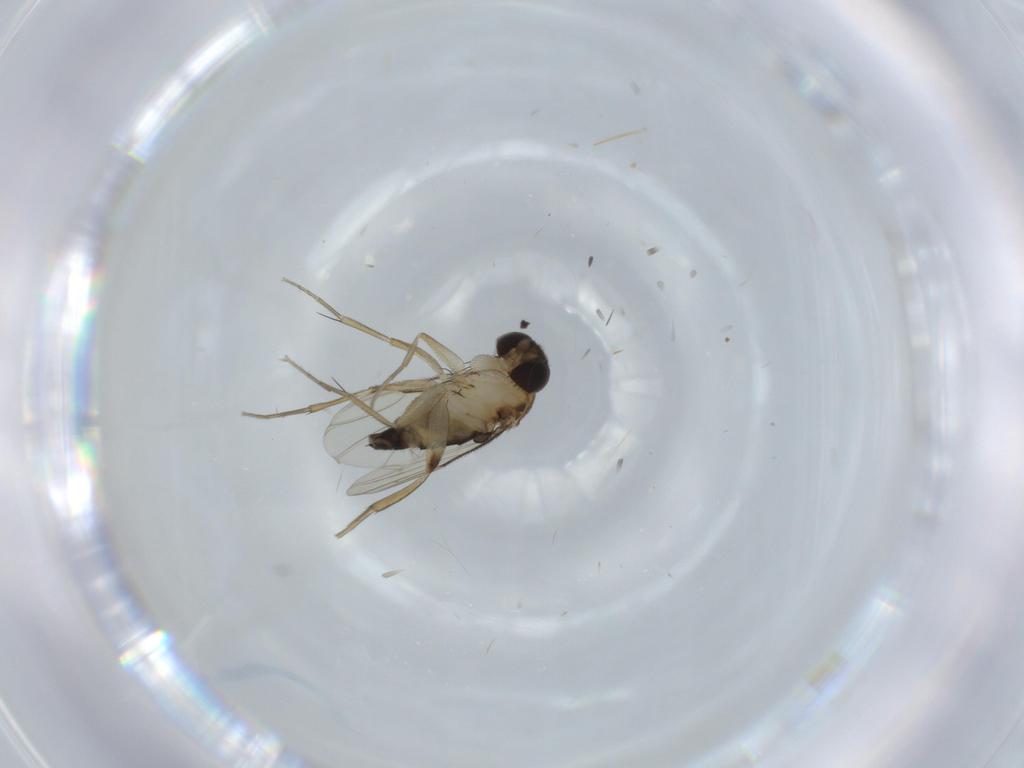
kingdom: Animalia
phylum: Arthropoda
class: Insecta
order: Diptera
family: Phoridae
